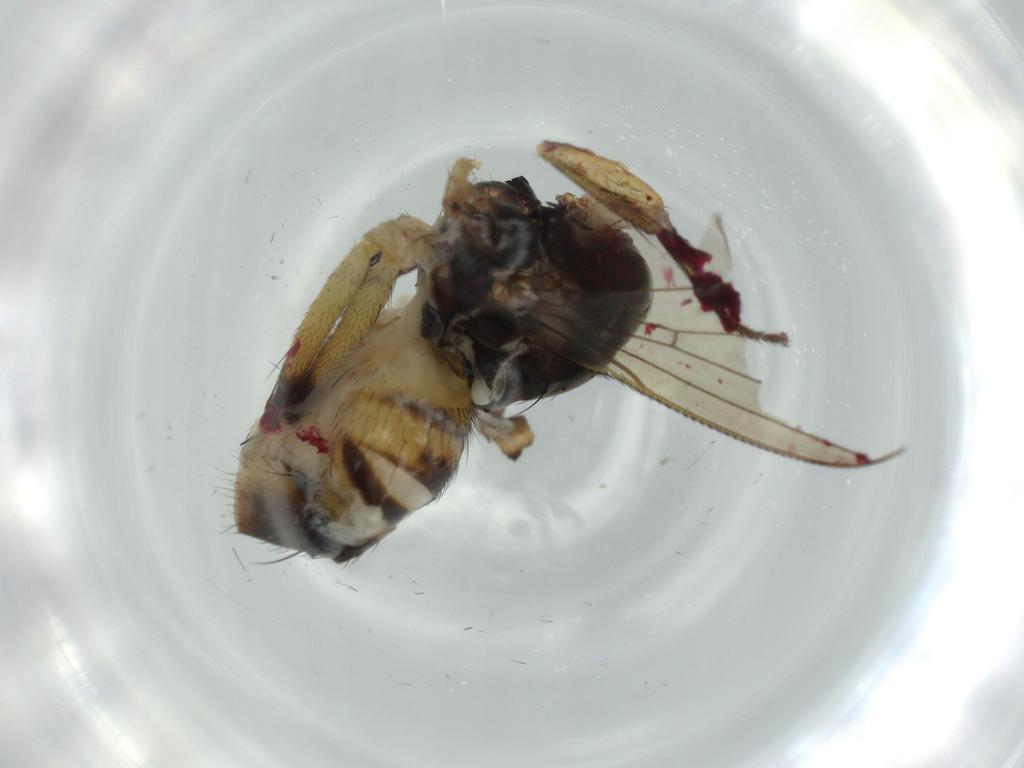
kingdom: Animalia
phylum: Arthropoda
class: Insecta
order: Diptera
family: Muscidae
